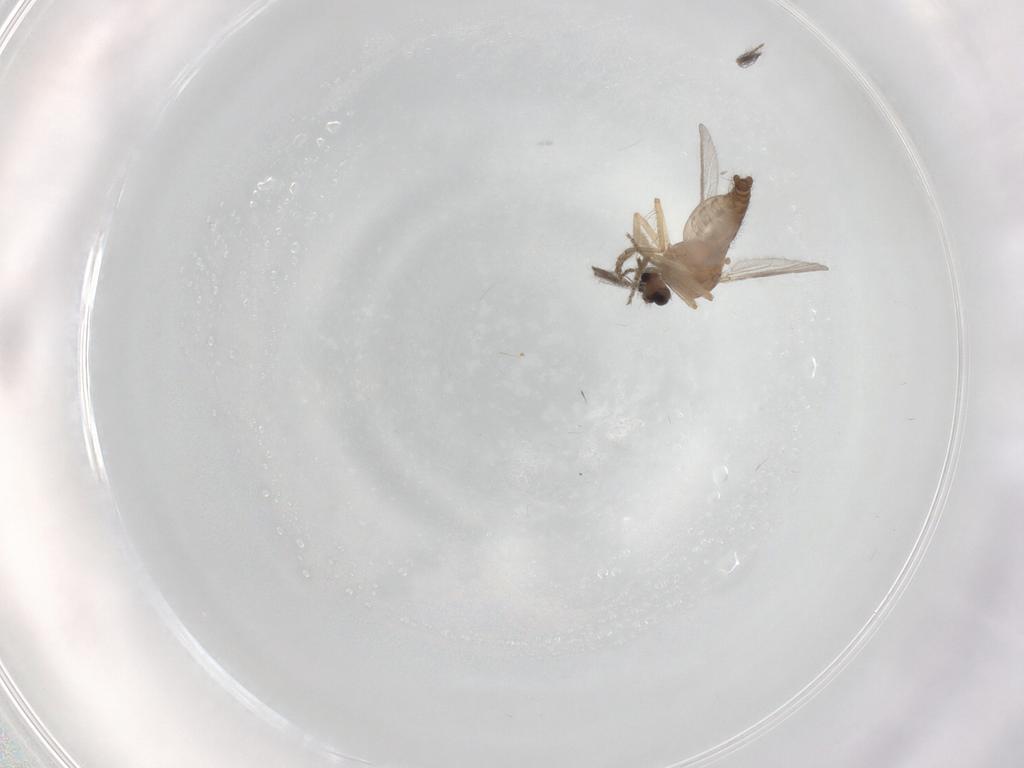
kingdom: Animalia
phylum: Arthropoda
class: Insecta
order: Diptera
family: Ceratopogonidae
